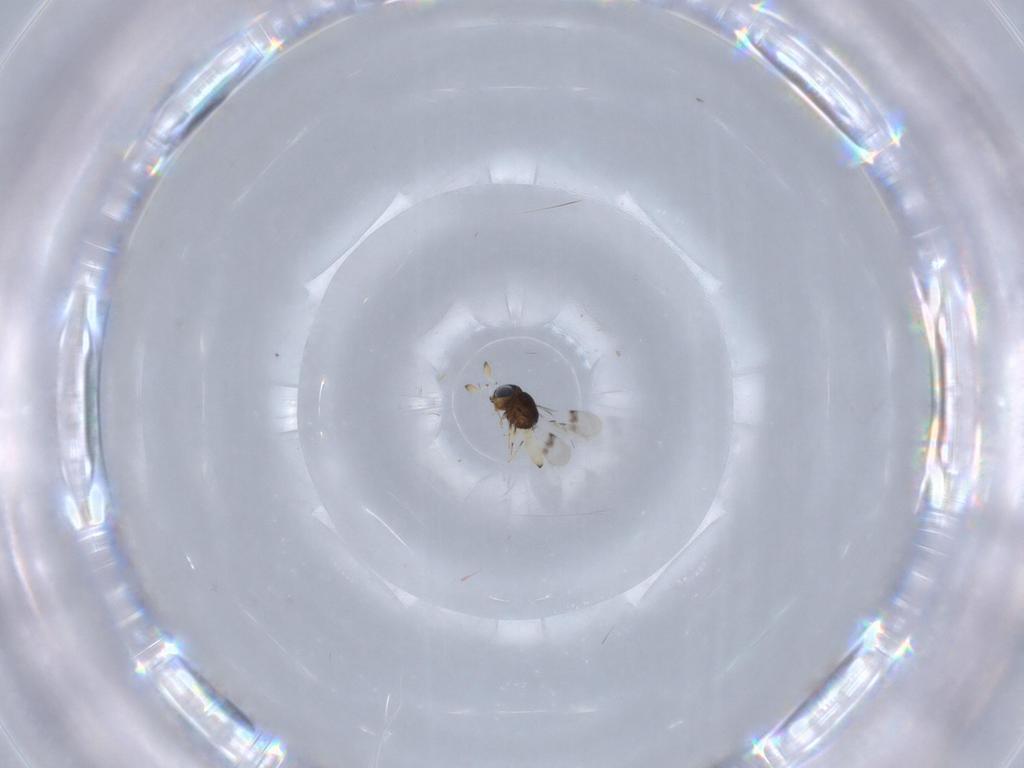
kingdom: Animalia
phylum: Arthropoda
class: Insecta
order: Hymenoptera
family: Scelionidae
